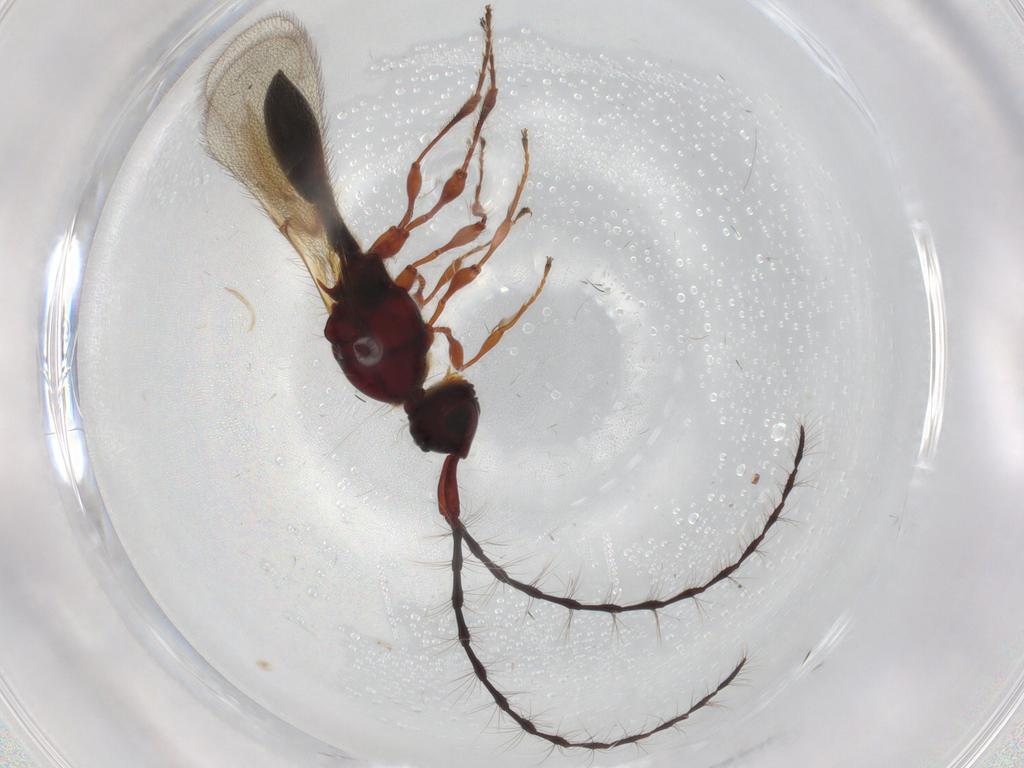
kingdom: Animalia
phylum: Arthropoda
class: Insecta
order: Hymenoptera
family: Diapriidae
